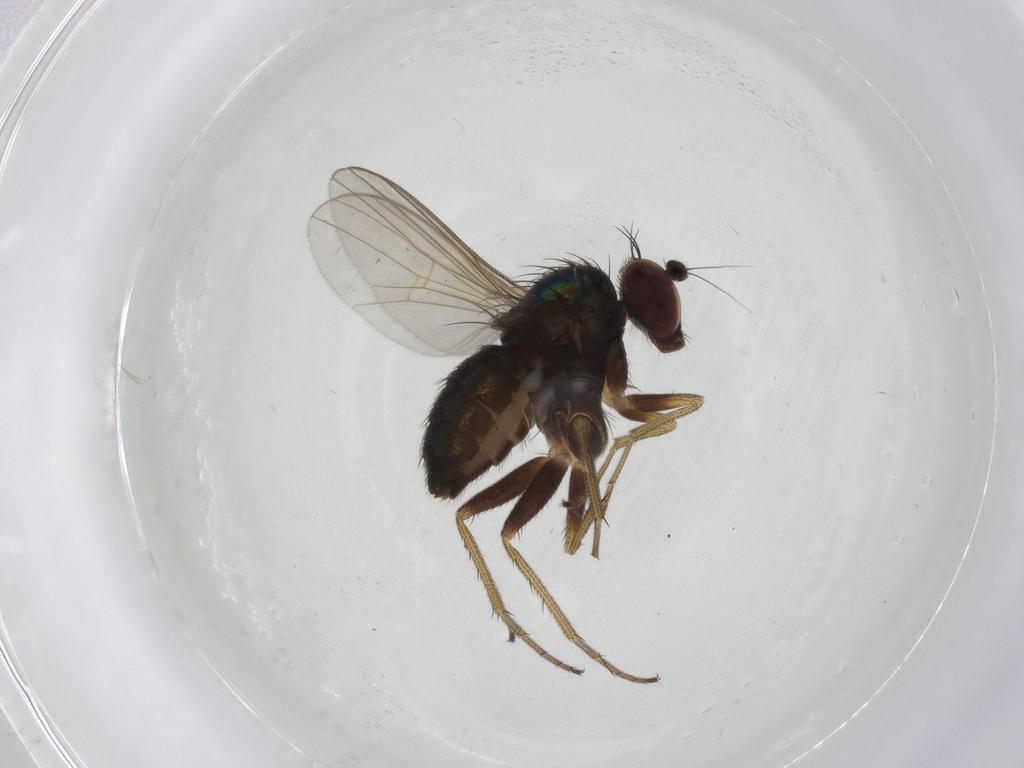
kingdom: Animalia
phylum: Arthropoda
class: Insecta
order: Diptera
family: Dolichopodidae
